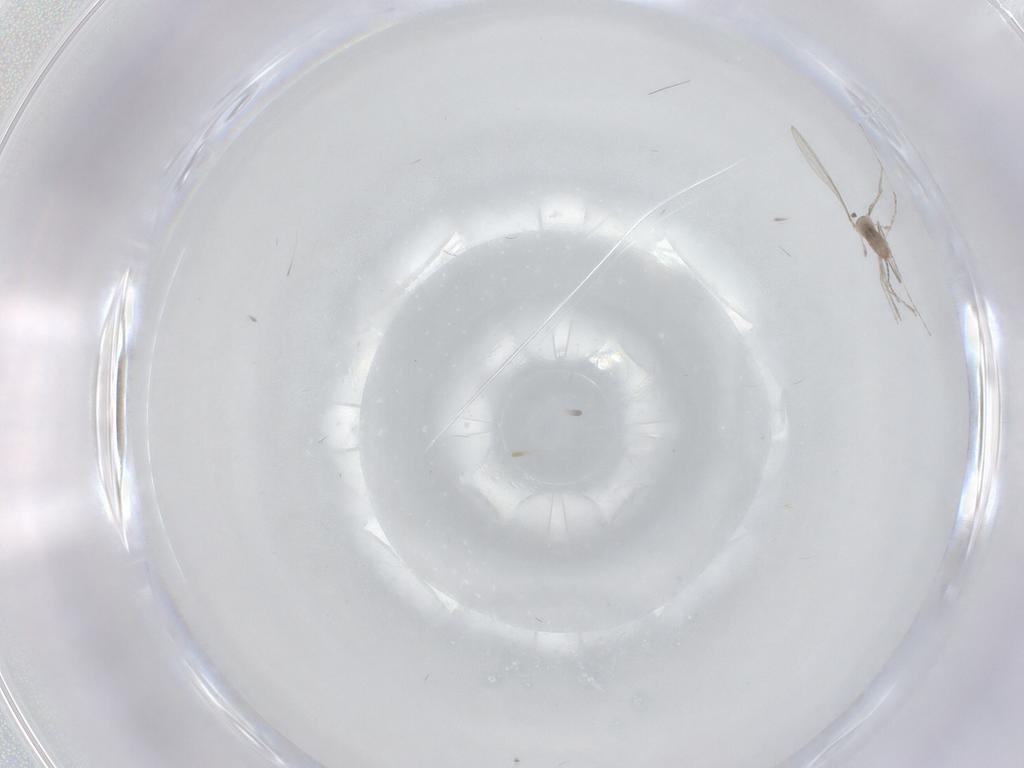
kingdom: Animalia
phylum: Arthropoda
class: Insecta
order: Diptera
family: Cecidomyiidae
